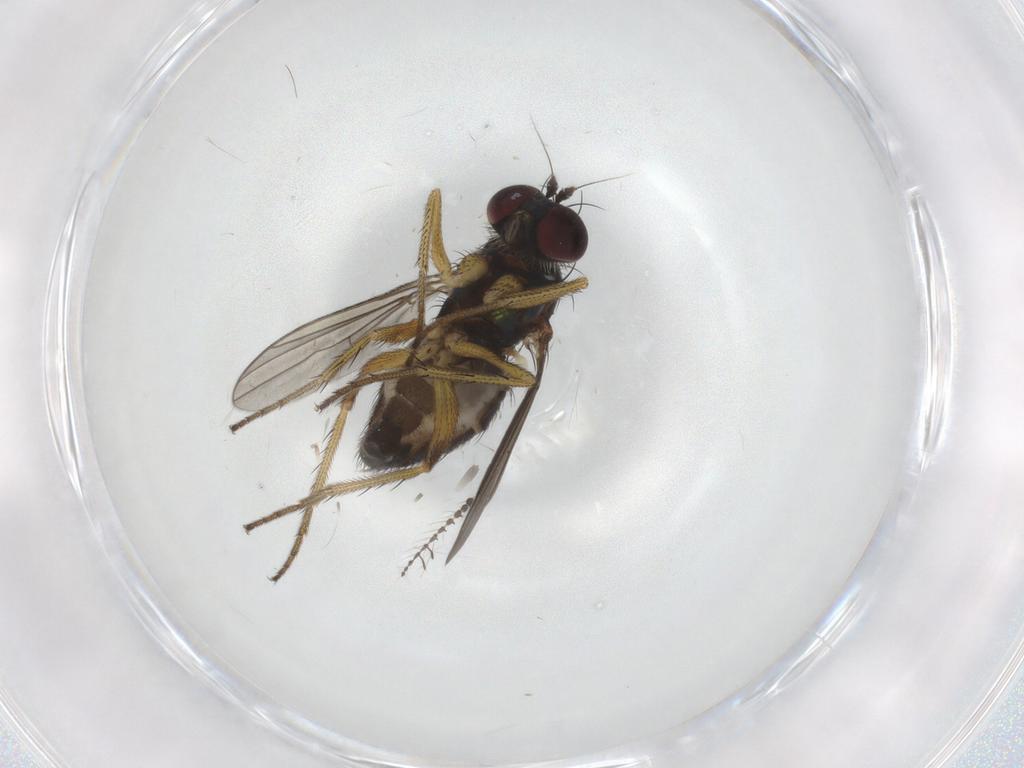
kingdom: Animalia
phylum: Arthropoda
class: Insecta
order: Diptera
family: Dolichopodidae
